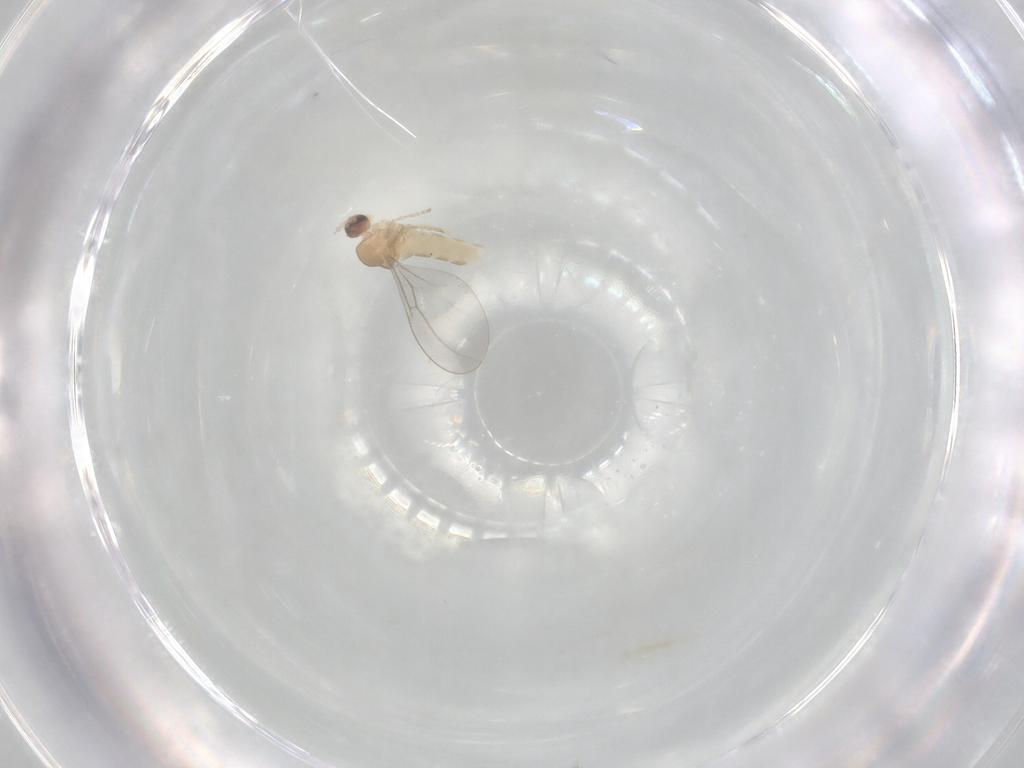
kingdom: Animalia
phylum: Arthropoda
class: Insecta
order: Diptera
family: Cecidomyiidae
